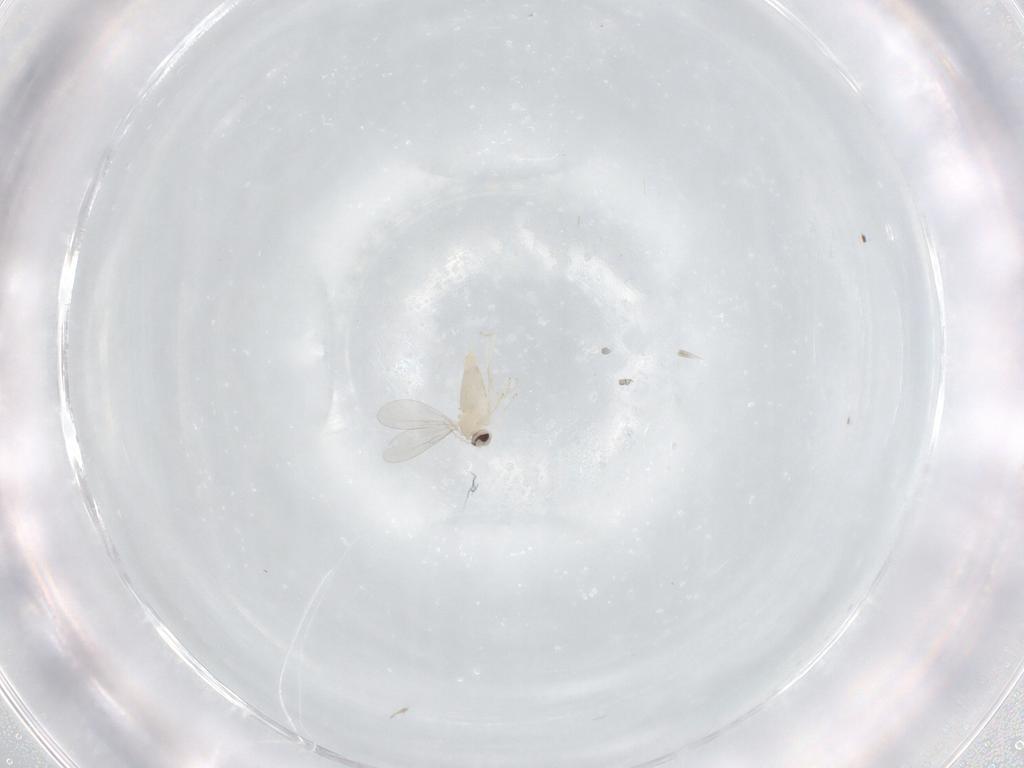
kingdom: Animalia
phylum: Arthropoda
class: Insecta
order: Diptera
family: Cecidomyiidae
